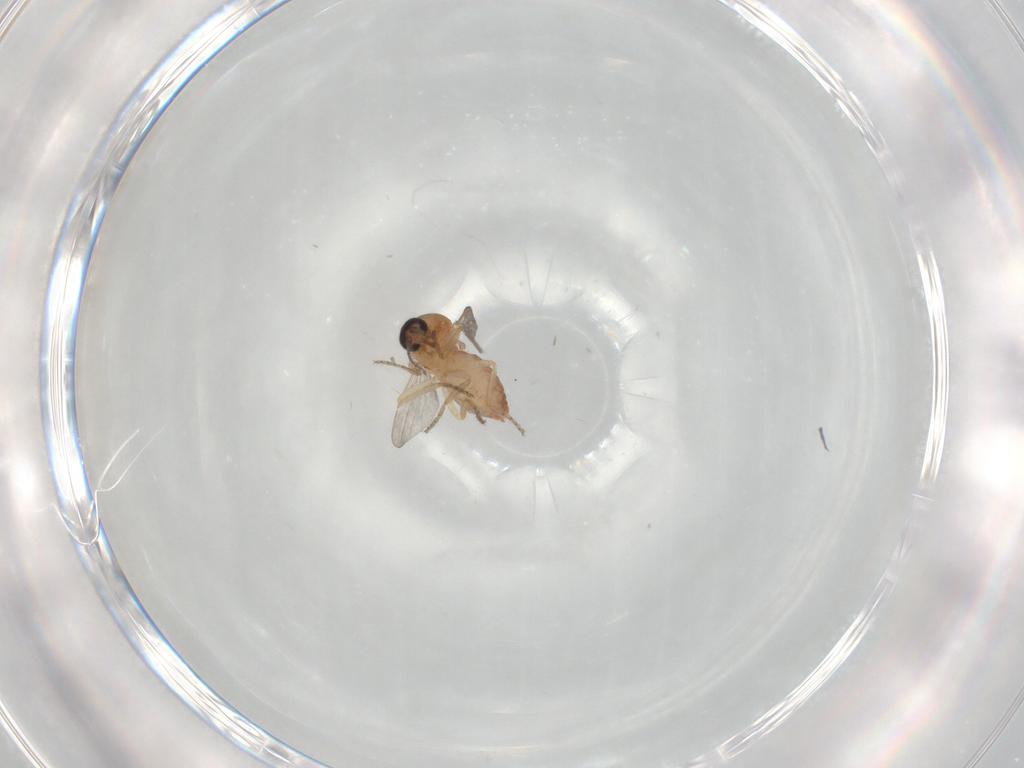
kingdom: Animalia
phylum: Arthropoda
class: Insecta
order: Diptera
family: Ceratopogonidae
